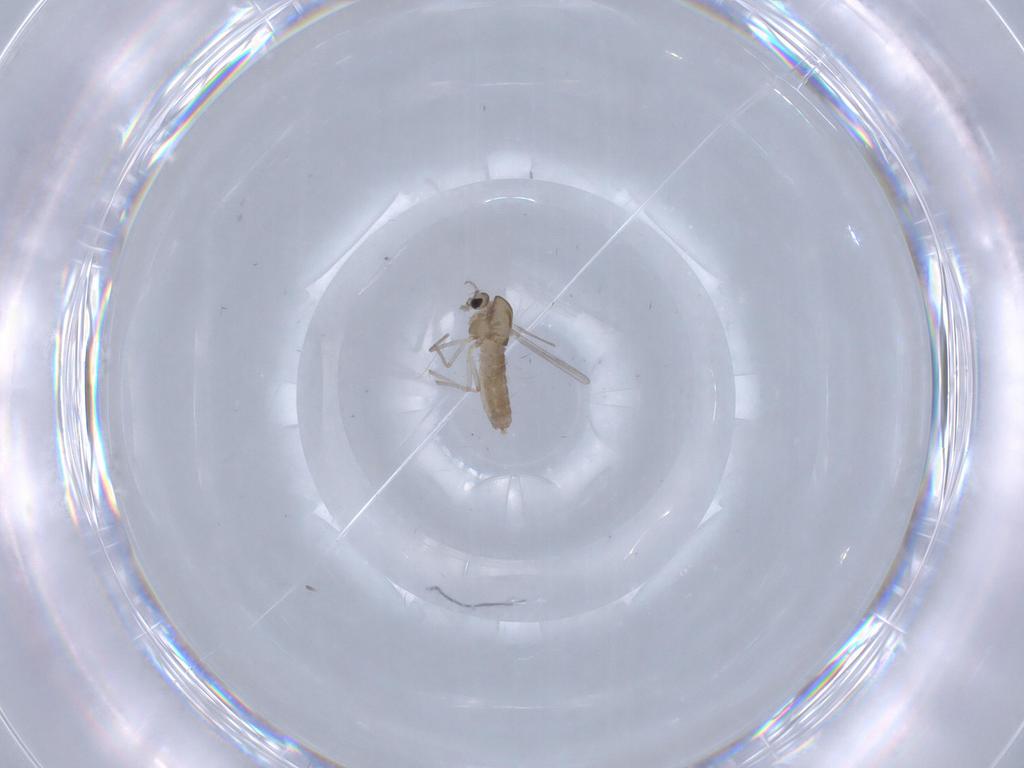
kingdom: Animalia
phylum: Arthropoda
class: Insecta
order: Diptera
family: Chironomidae
